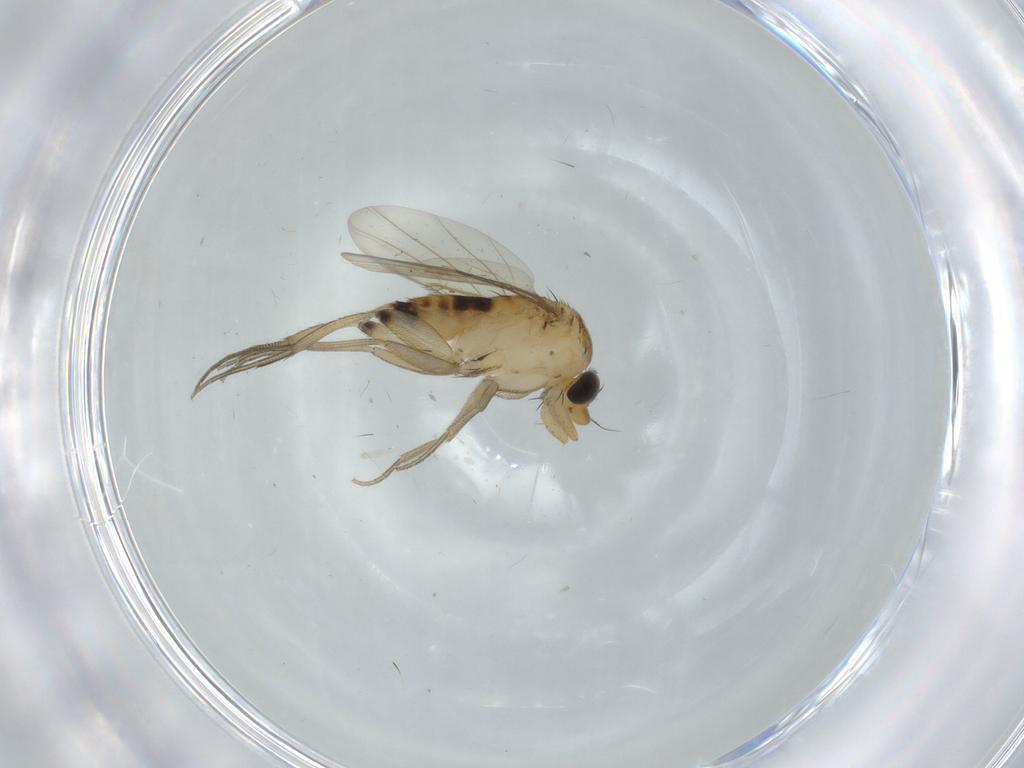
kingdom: Animalia
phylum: Arthropoda
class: Insecta
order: Diptera
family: Phoridae
